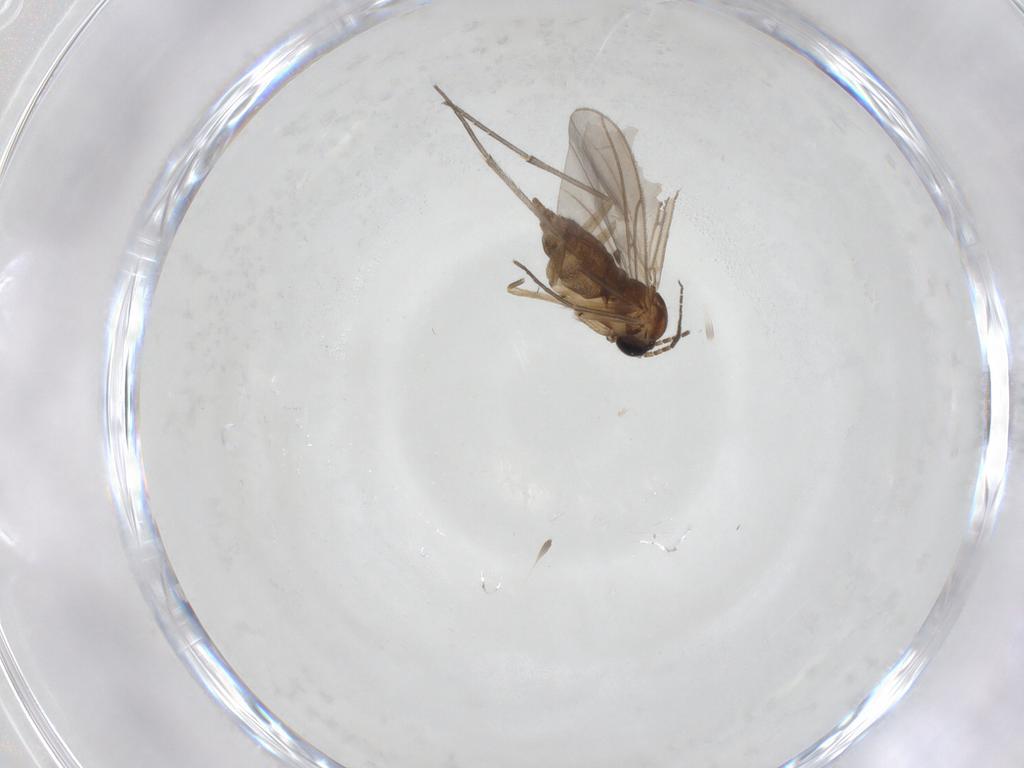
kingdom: Animalia
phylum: Arthropoda
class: Insecta
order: Diptera
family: Sciaridae
